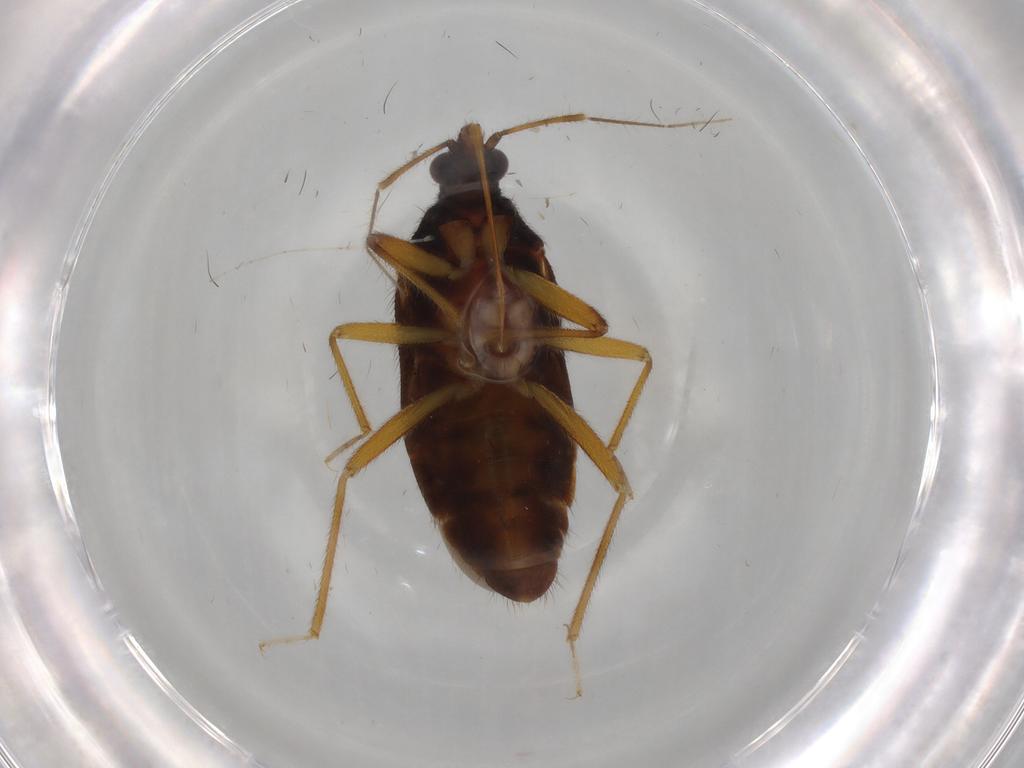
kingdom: Animalia
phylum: Arthropoda
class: Insecta
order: Hemiptera
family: Anthocoridae
